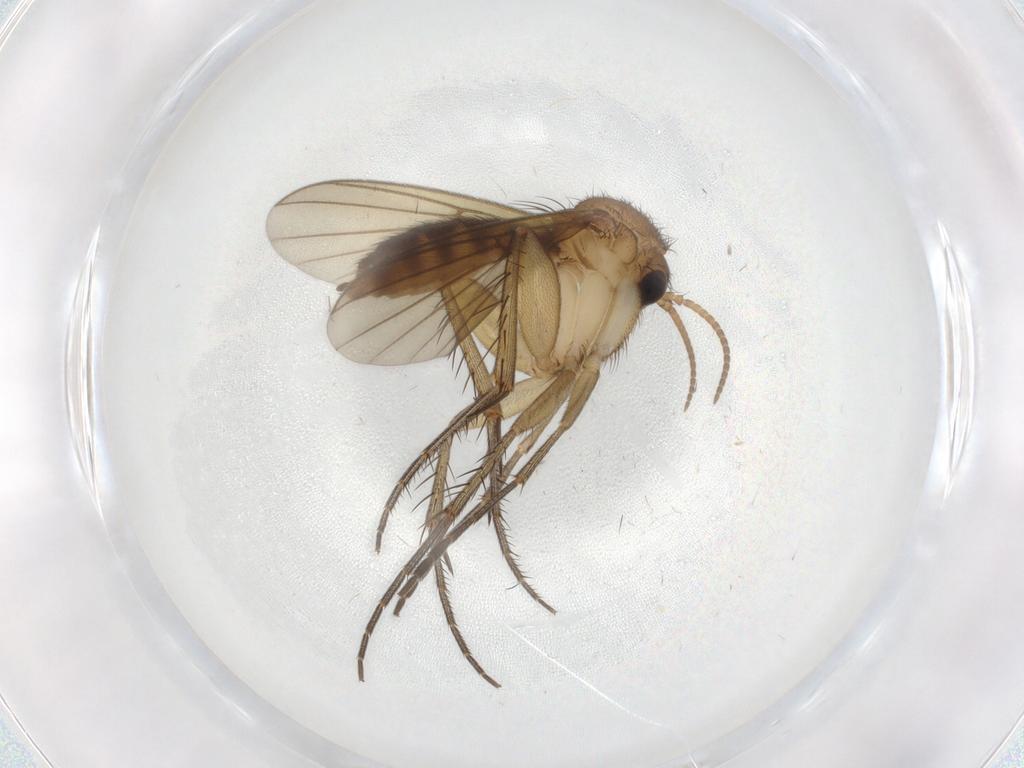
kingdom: Animalia
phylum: Arthropoda
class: Insecta
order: Diptera
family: Mycetophilidae
